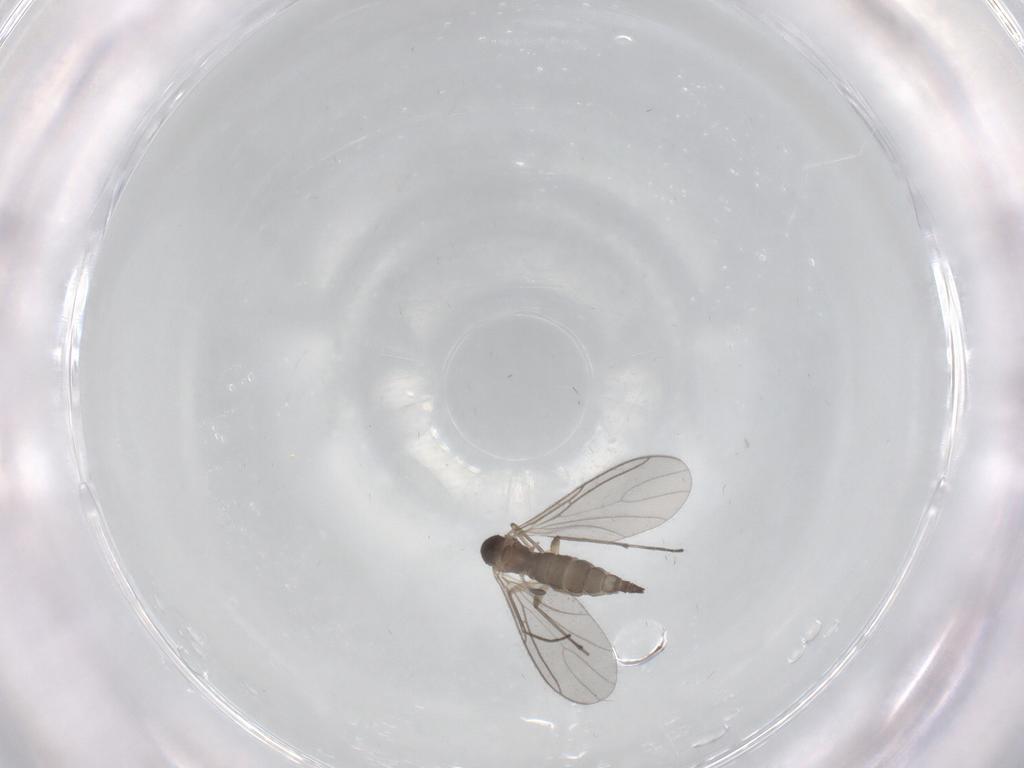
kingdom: Animalia
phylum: Arthropoda
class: Insecta
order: Diptera
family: Sciaridae
